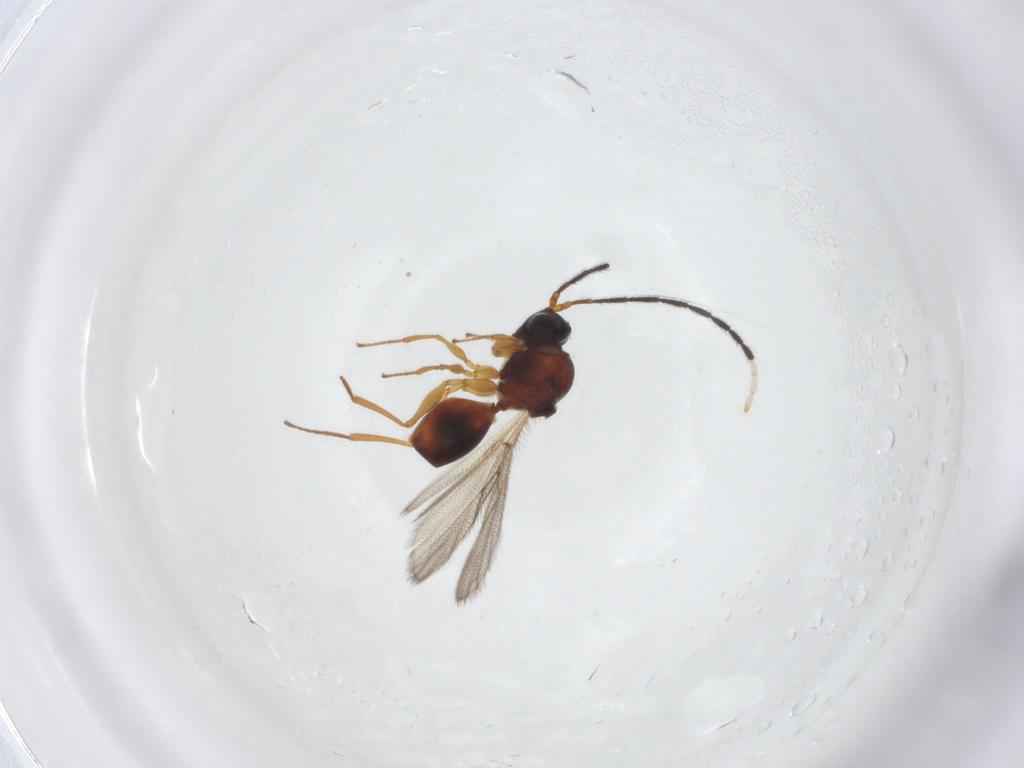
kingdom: Animalia
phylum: Arthropoda
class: Insecta
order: Hymenoptera
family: Figitidae
